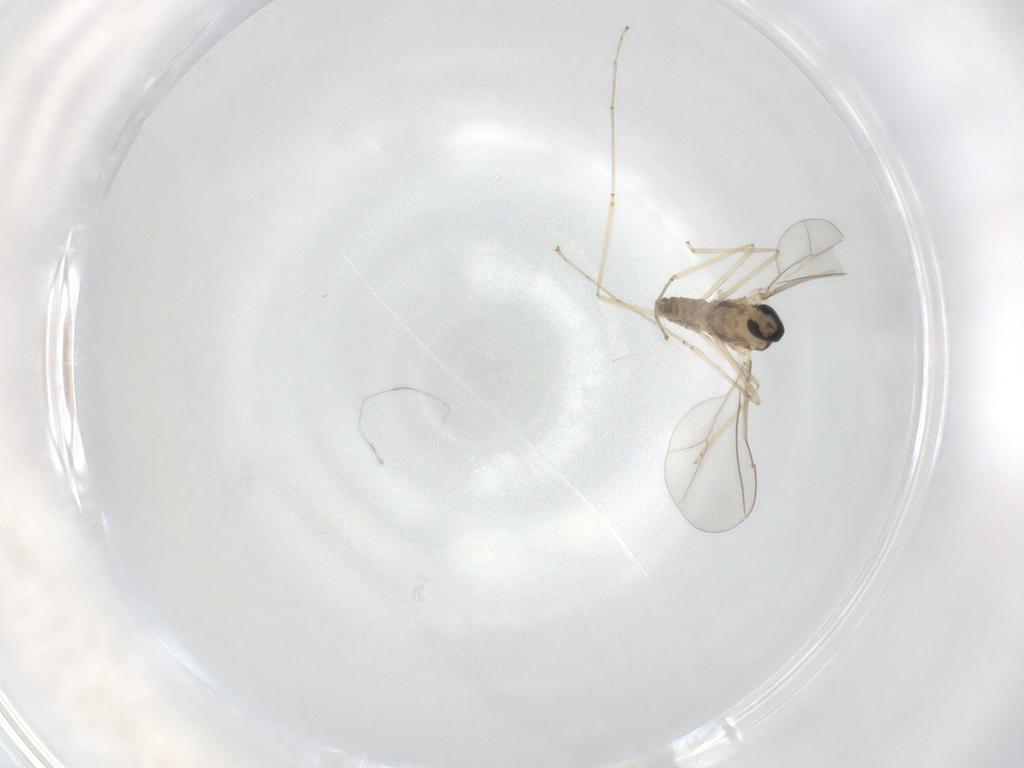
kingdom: Animalia
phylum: Arthropoda
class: Insecta
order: Diptera
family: Cecidomyiidae
